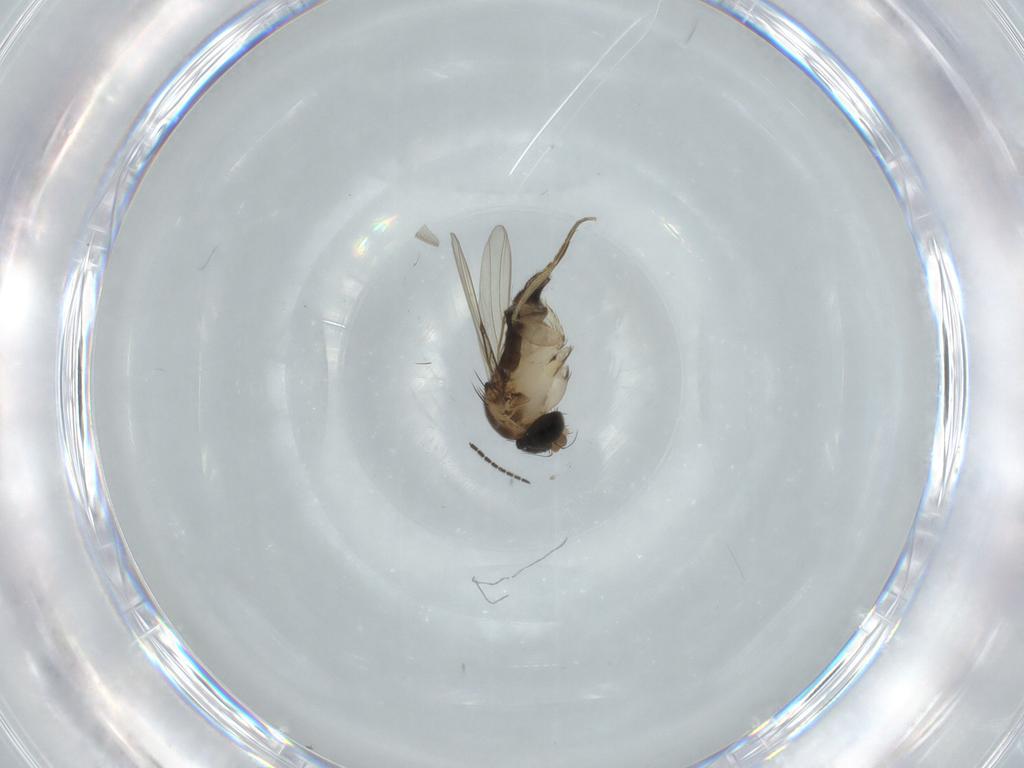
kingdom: Animalia
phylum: Arthropoda
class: Insecta
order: Diptera
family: Phoridae
